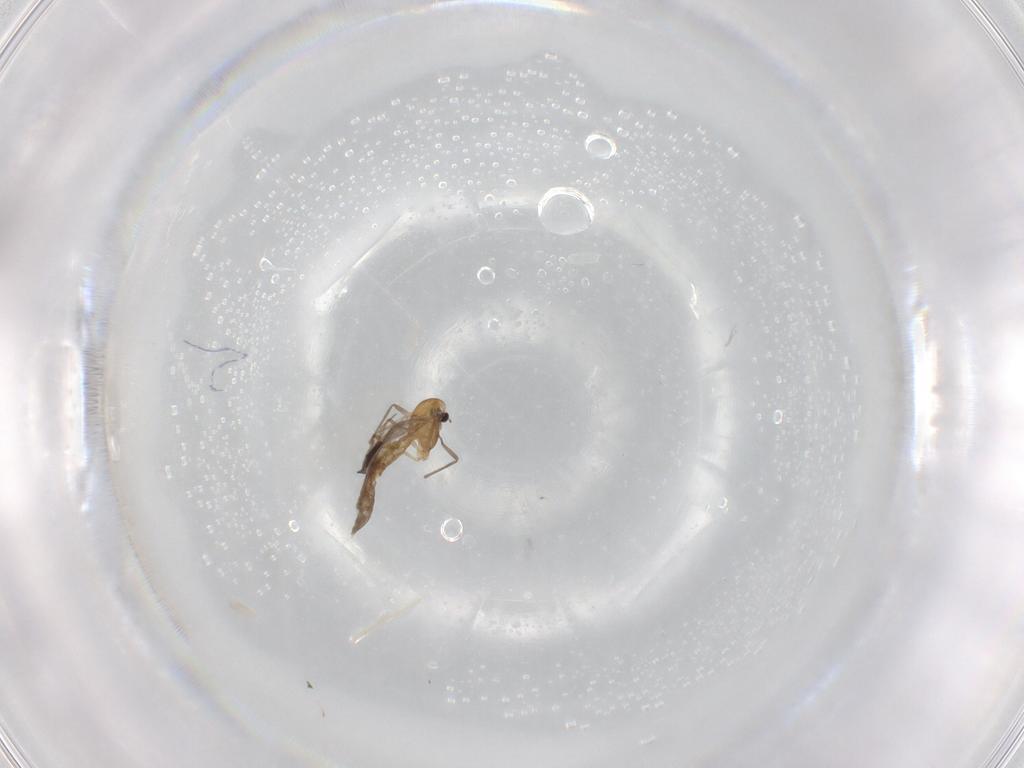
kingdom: Animalia
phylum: Arthropoda
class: Insecta
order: Diptera
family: Chironomidae
